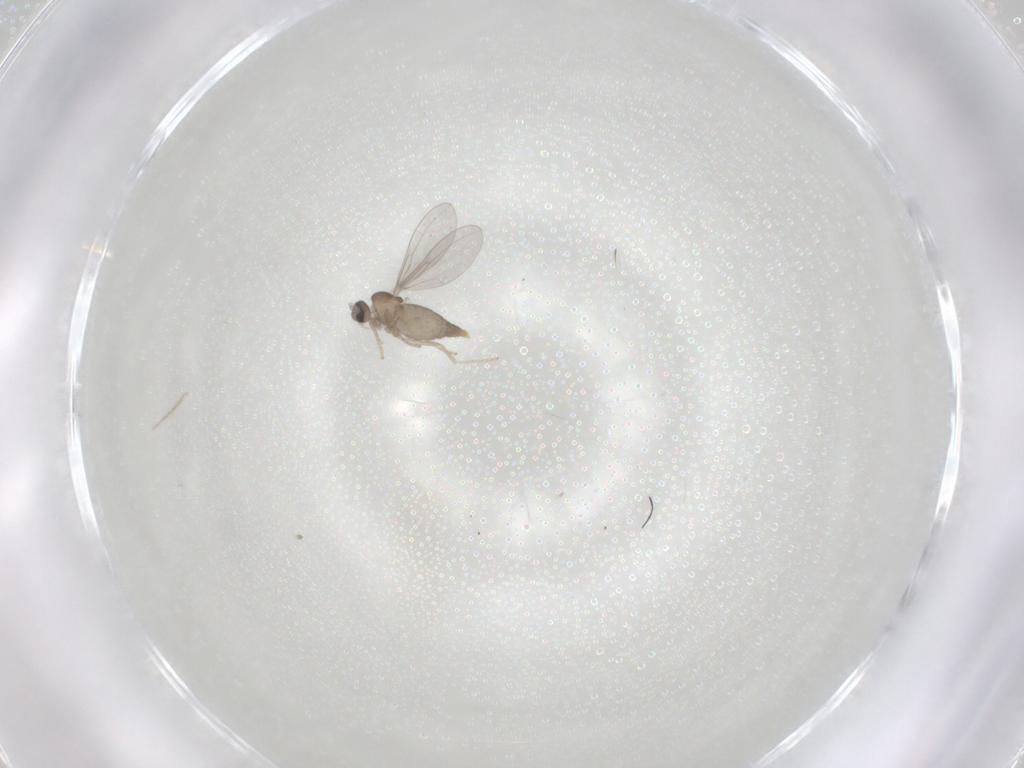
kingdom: Animalia
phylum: Arthropoda
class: Insecta
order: Diptera
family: Cecidomyiidae
